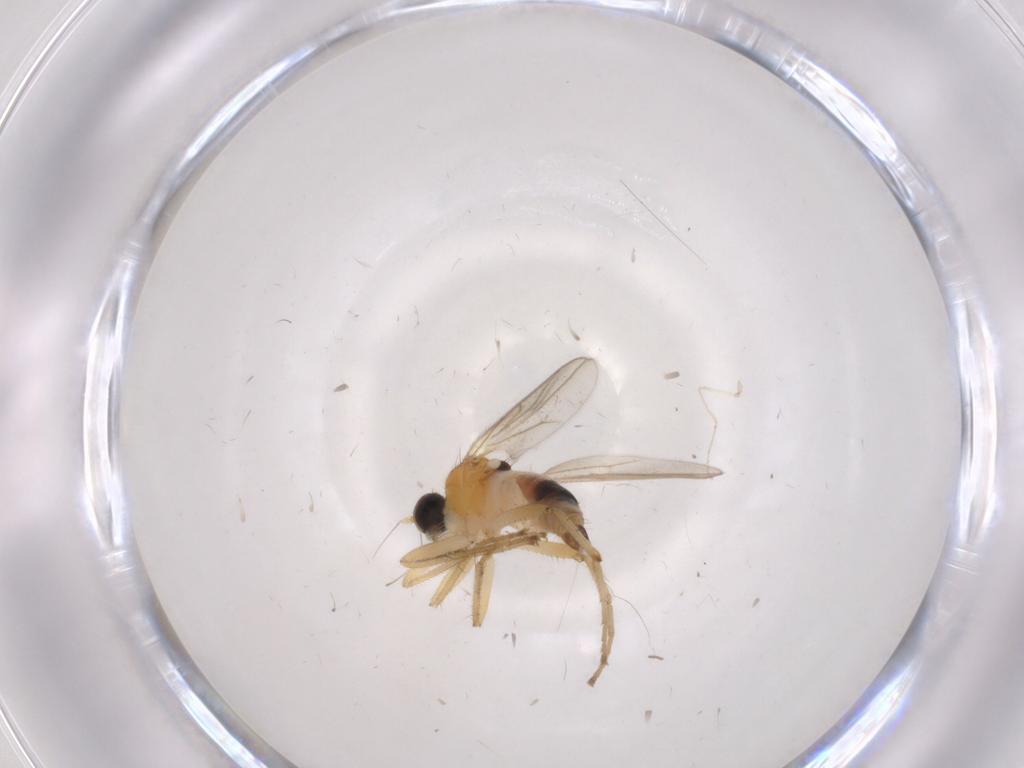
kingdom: Animalia
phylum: Arthropoda
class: Insecta
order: Diptera
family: Hybotidae
